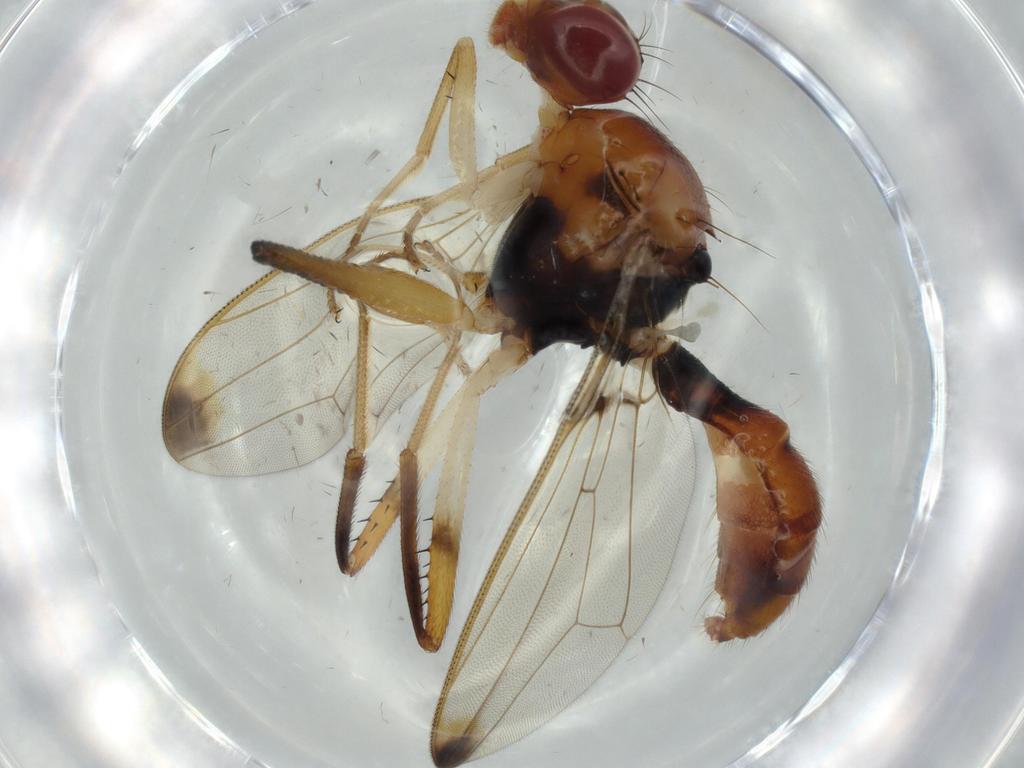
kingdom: Animalia
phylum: Arthropoda
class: Insecta
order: Diptera
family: Richardiidae
